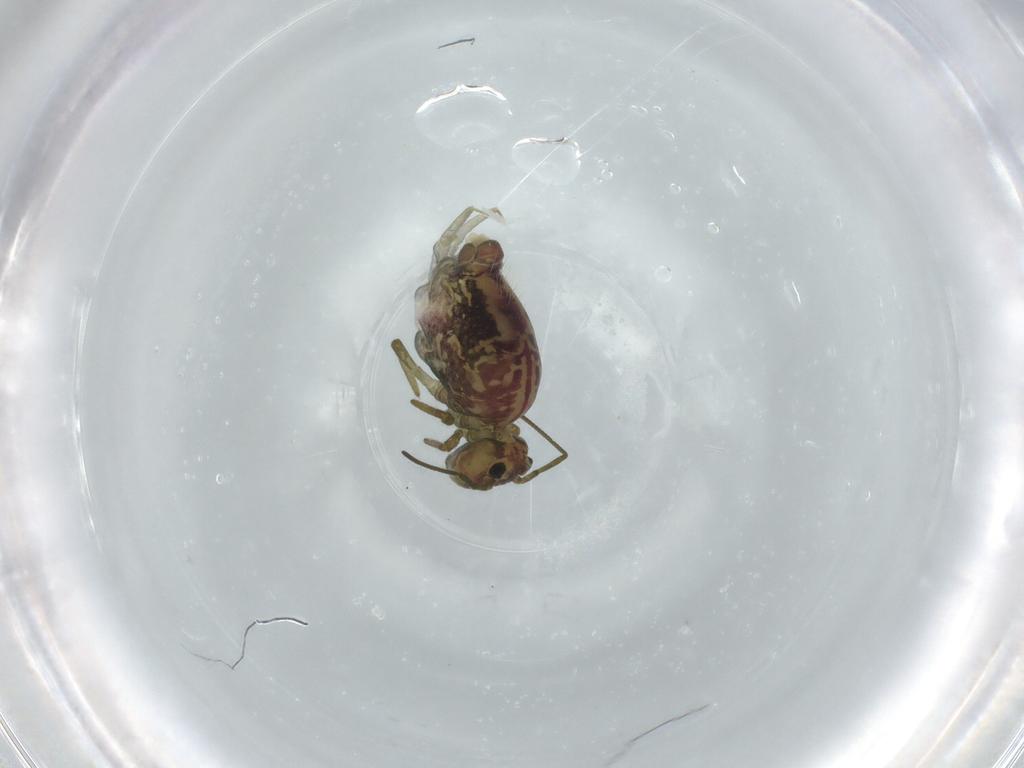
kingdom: Animalia
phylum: Arthropoda
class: Collembola
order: Symphypleona
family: Sminthuridae
